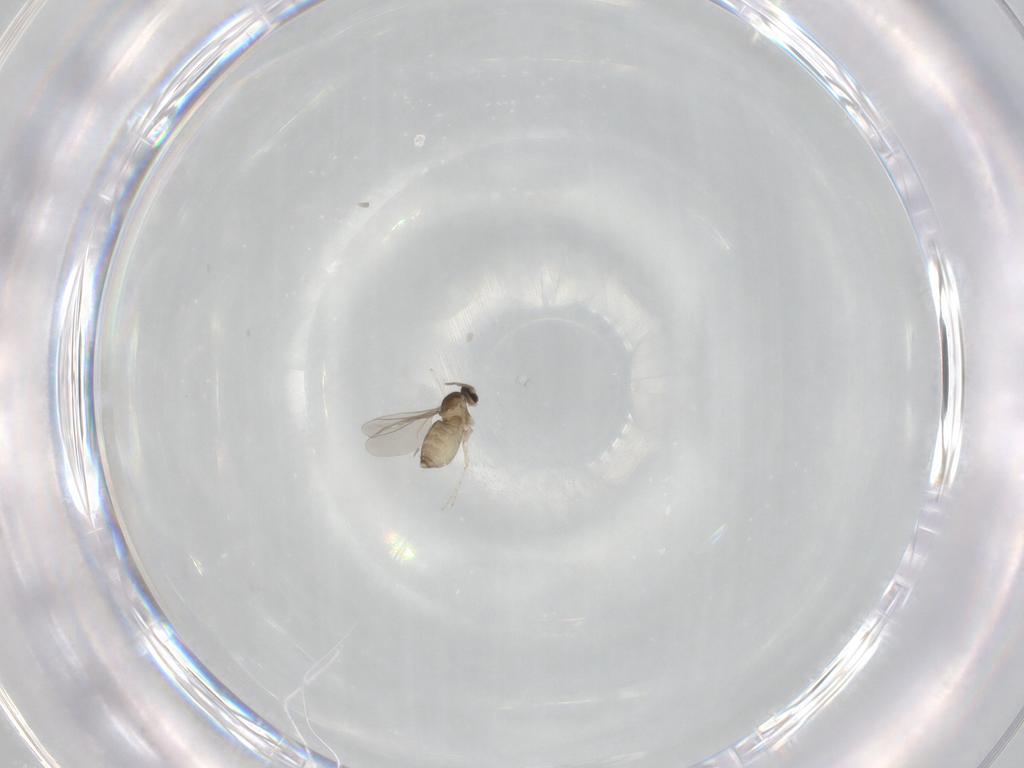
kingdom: Animalia
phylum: Arthropoda
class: Insecta
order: Diptera
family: Cecidomyiidae
